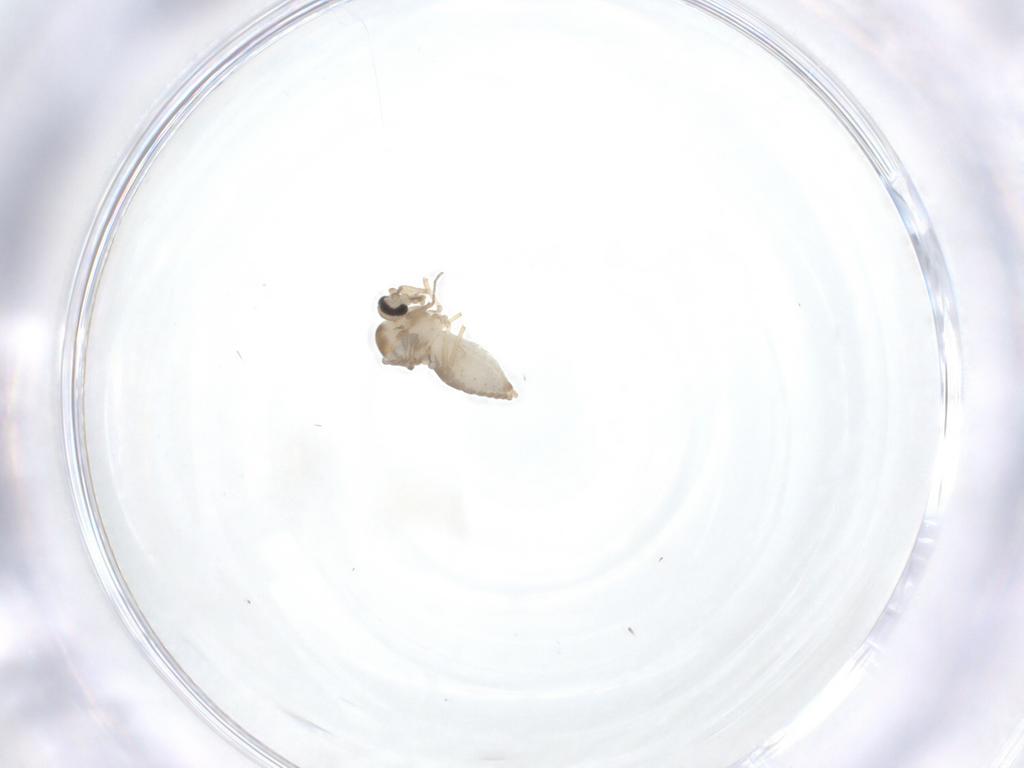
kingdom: Animalia
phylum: Arthropoda
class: Insecta
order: Diptera
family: Ceratopogonidae
